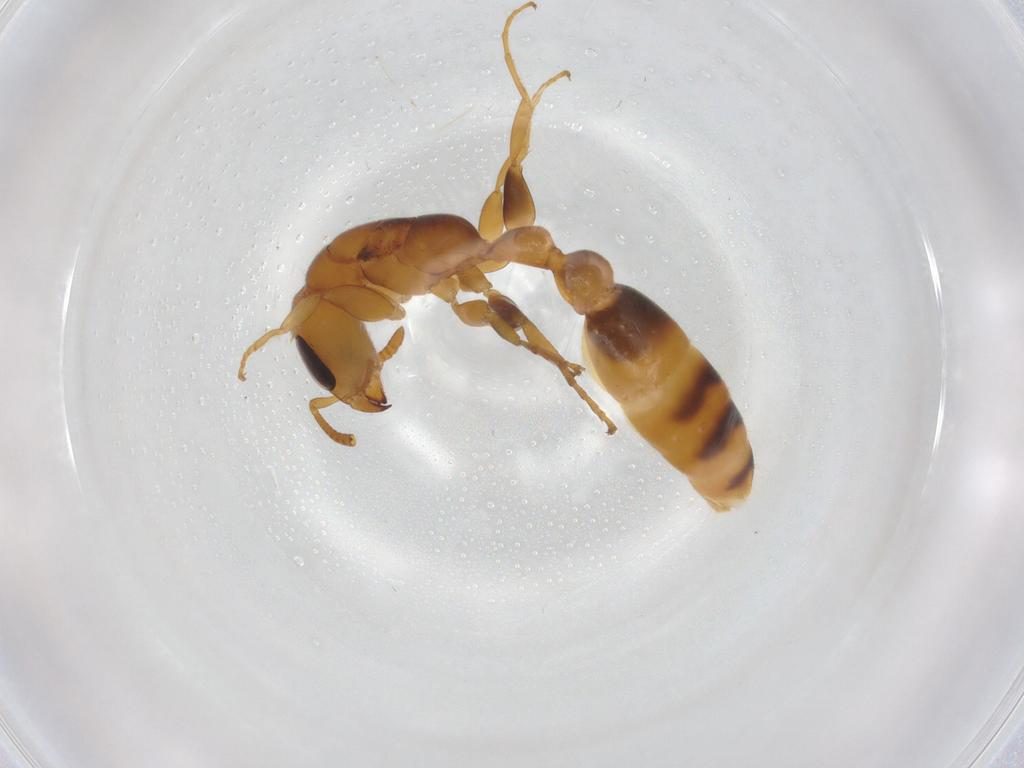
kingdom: Animalia
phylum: Arthropoda
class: Insecta
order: Hymenoptera
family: Formicidae
